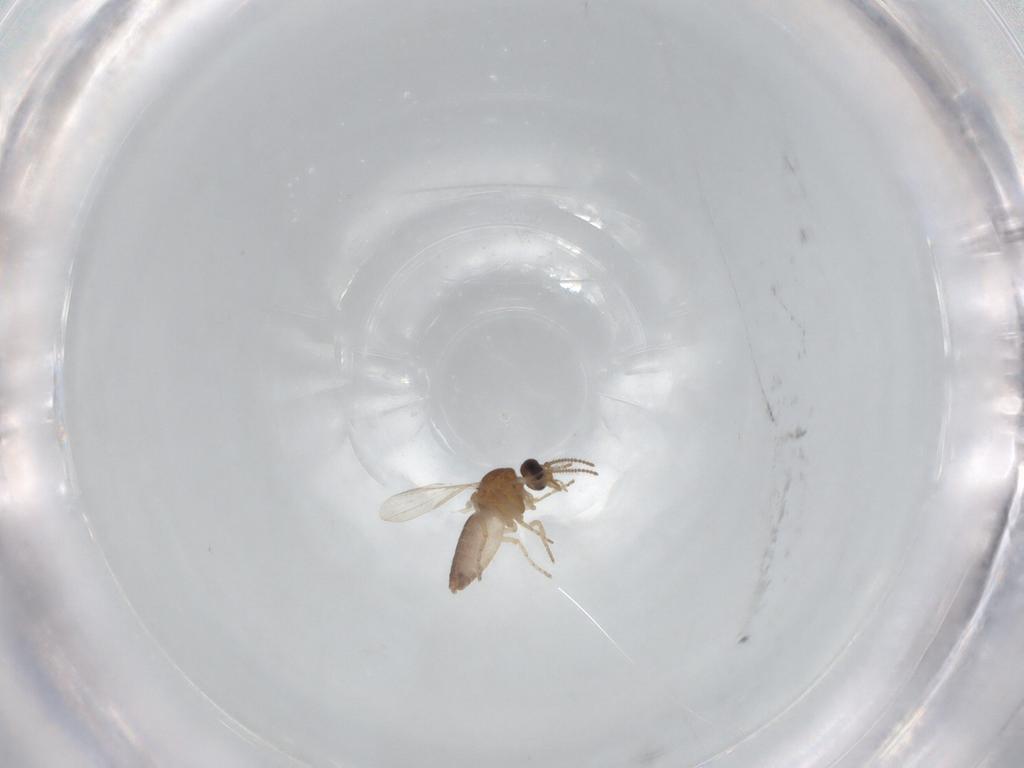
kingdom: Animalia
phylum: Arthropoda
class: Insecta
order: Diptera
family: Ceratopogonidae
